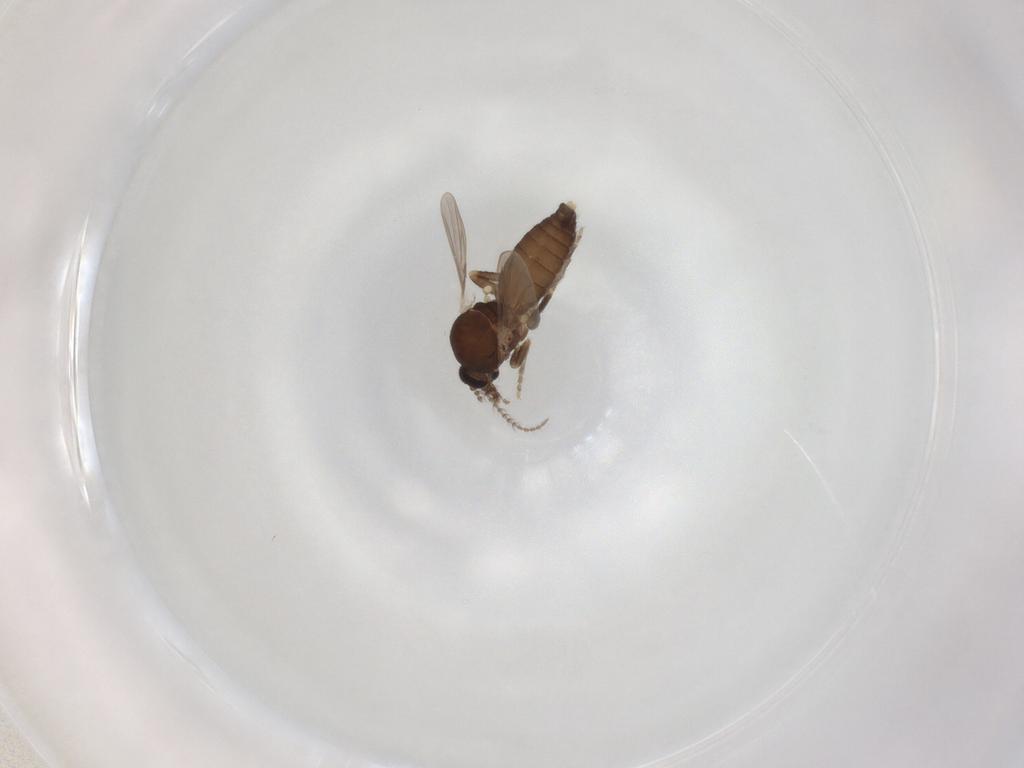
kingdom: Animalia
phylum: Arthropoda
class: Insecta
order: Diptera
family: Ceratopogonidae
